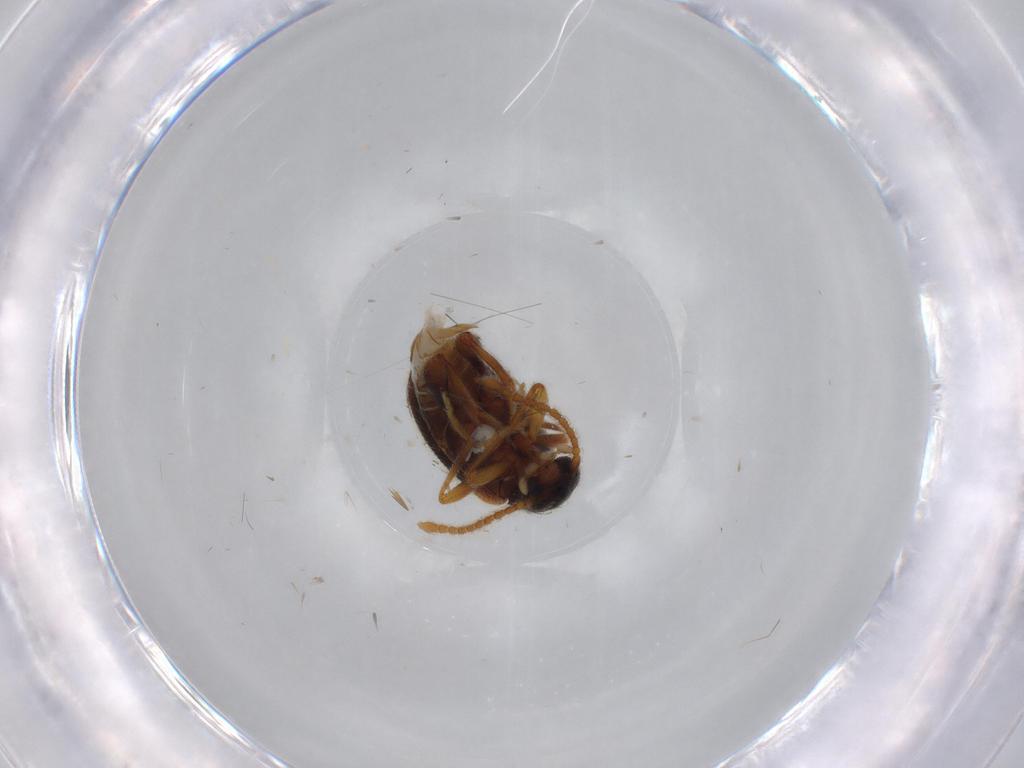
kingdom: Animalia
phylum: Arthropoda
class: Insecta
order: Coleoptera
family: Aderidae
